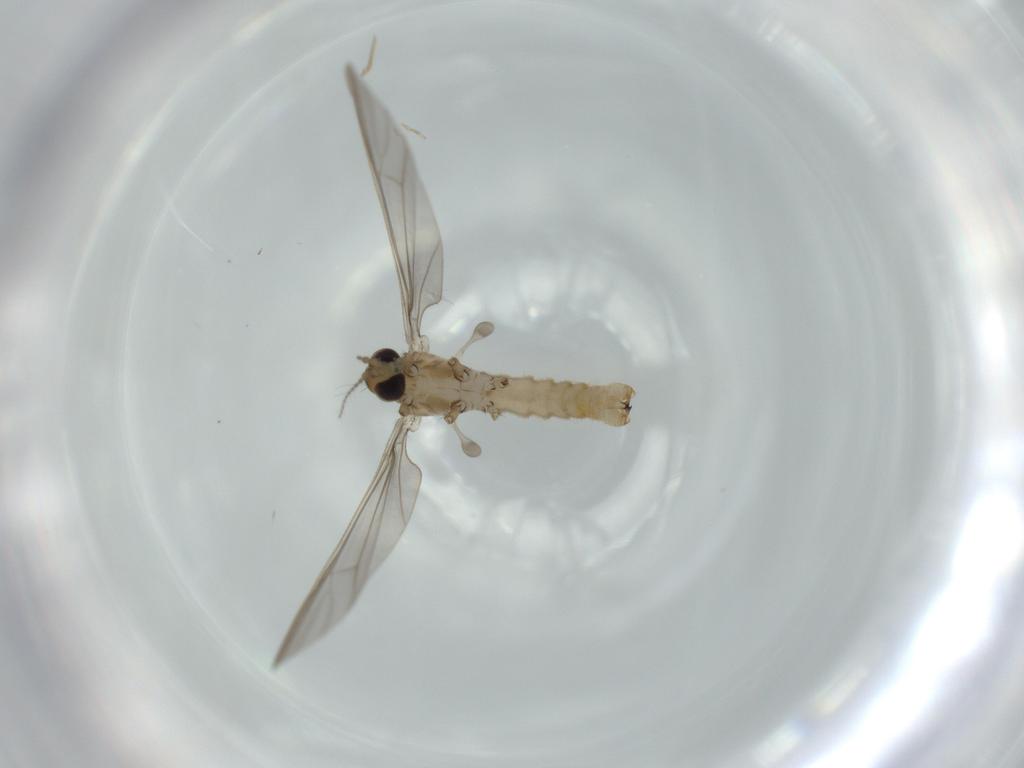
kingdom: Animalia
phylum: Arthropoda
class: Insecta
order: Diptera
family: Limoniidae
